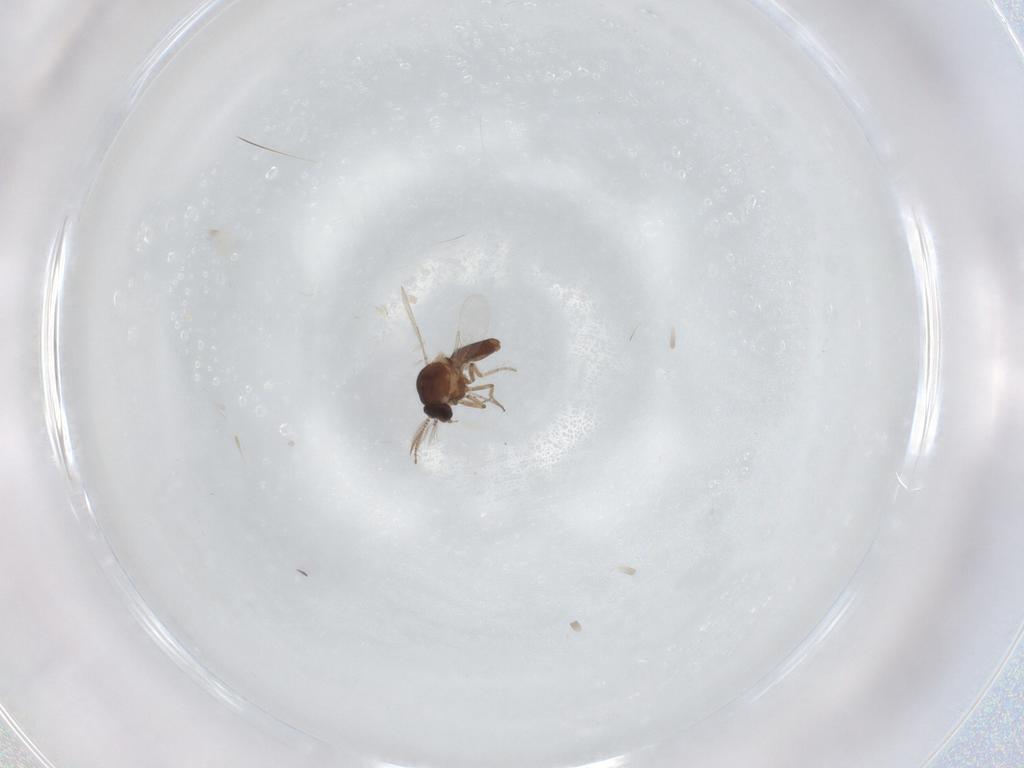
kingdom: Animalia
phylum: Arthropoda
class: Insecta
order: Diptera
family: Ceratopogonidae
